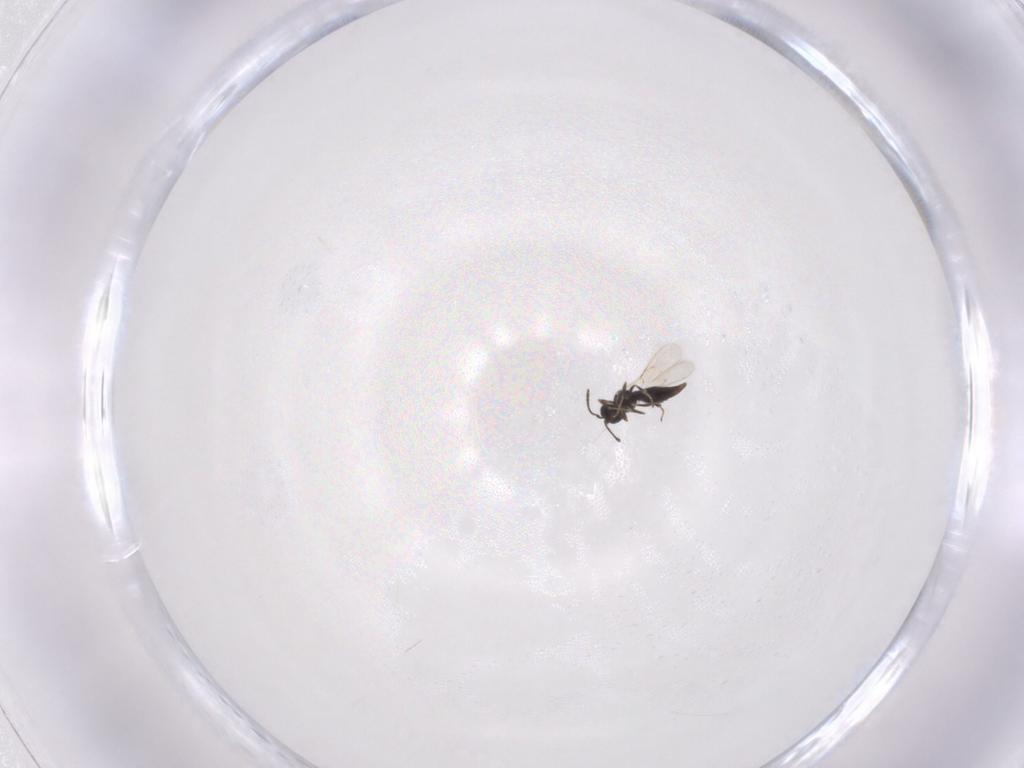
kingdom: Animalia
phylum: Arthropoda
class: Insecta
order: Hymenoptera
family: Scelionidae
